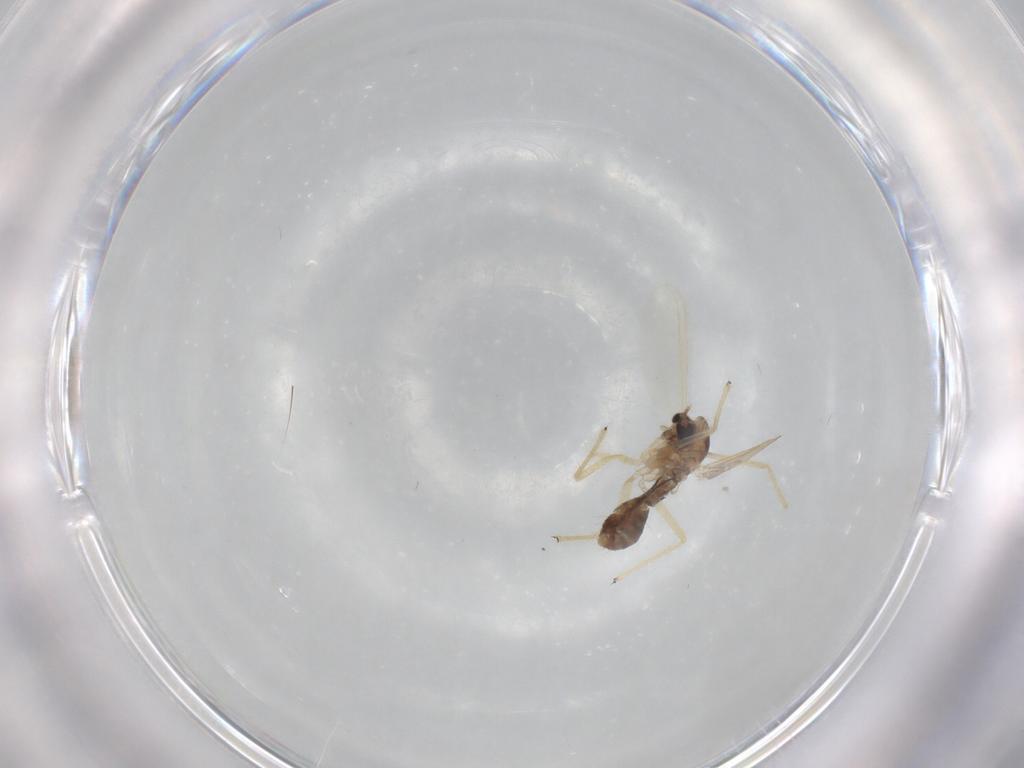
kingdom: Animalia
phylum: Arthropoda
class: Insecta
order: Diptera
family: Chironomidae
